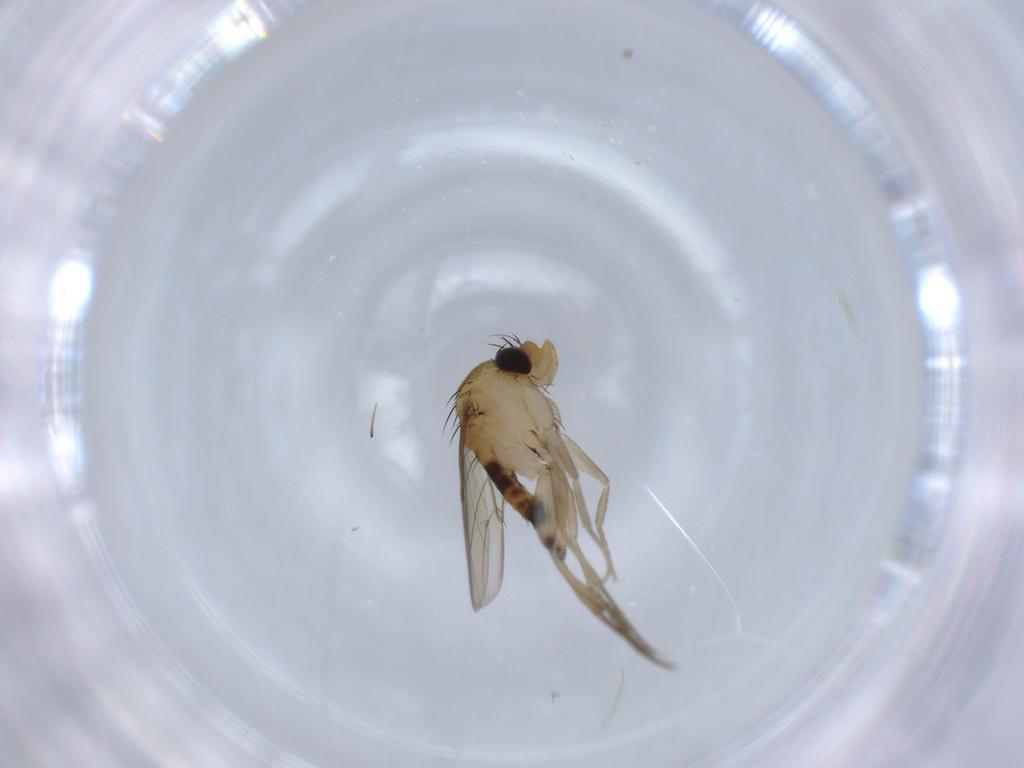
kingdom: Animalia
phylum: Arthropoda
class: Insecta
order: Diptera
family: Phoridae
